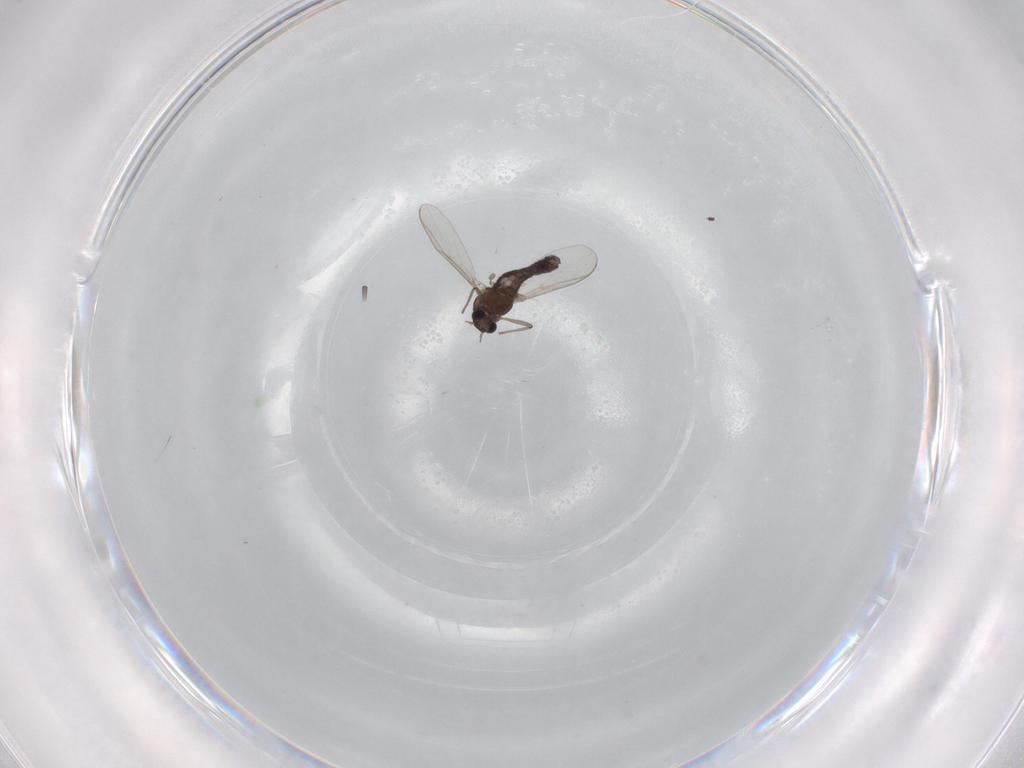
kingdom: Animalia
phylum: Arthropoda
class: Insecta
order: Diptera
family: Chironomidae
